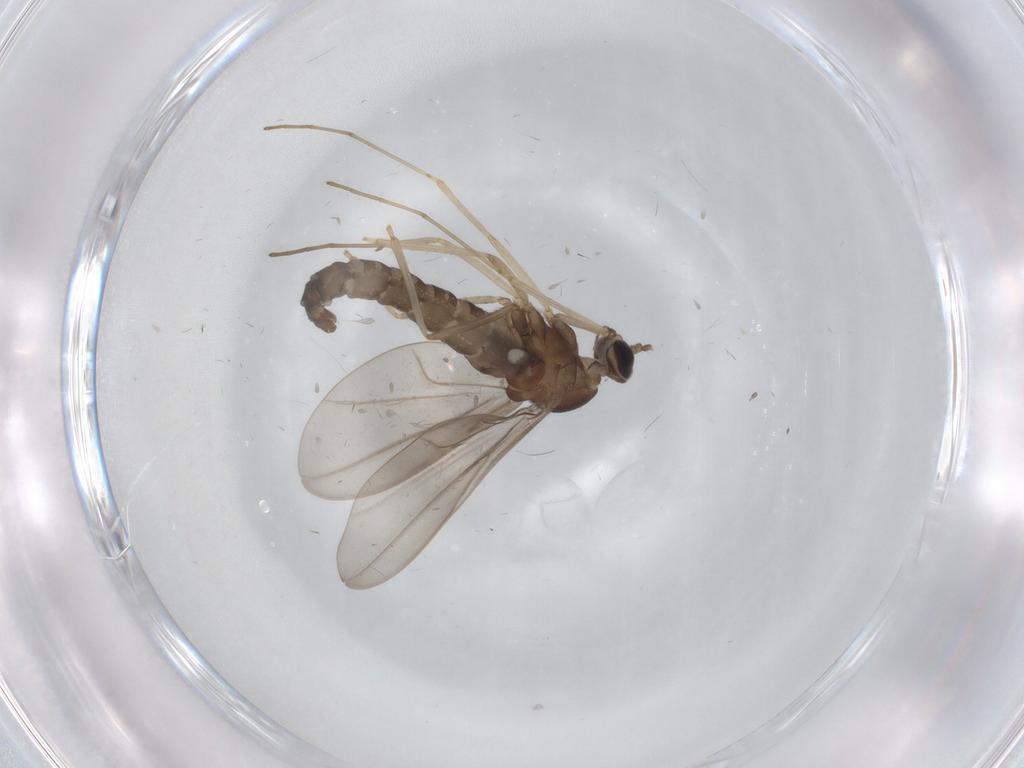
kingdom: Animalia
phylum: Arthropoda
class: Insecta
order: Diptera
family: Cecidomyiidae
